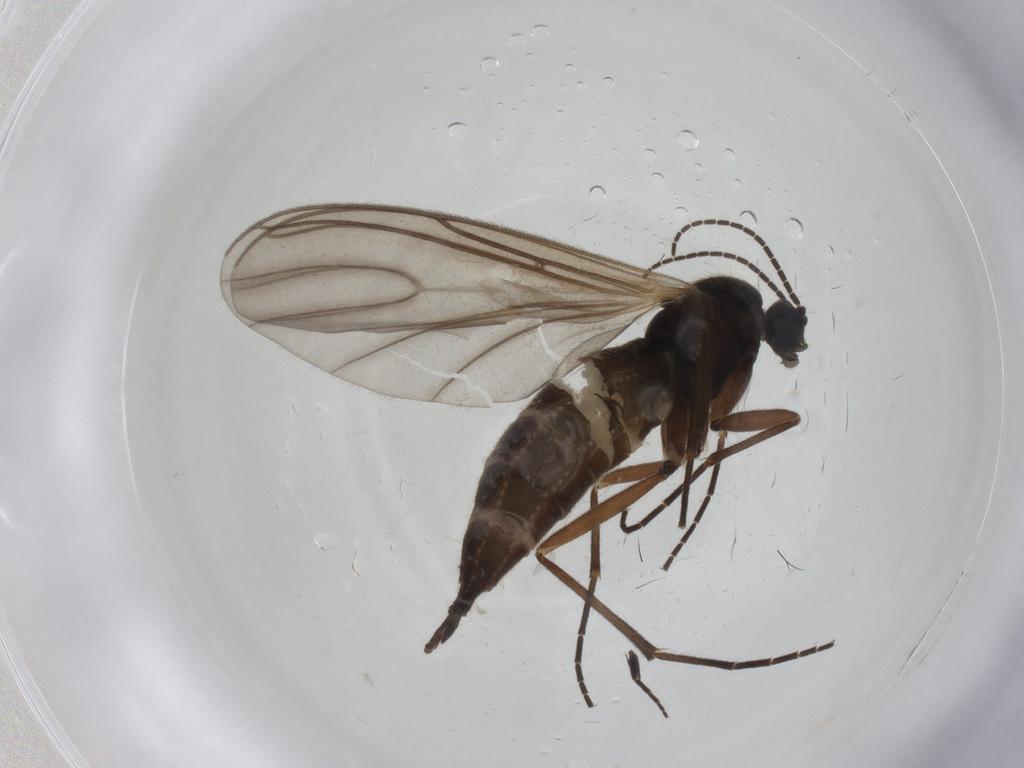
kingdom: Animalia
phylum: Arthropoda
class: Insecta
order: Diptera
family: Sciaridae
